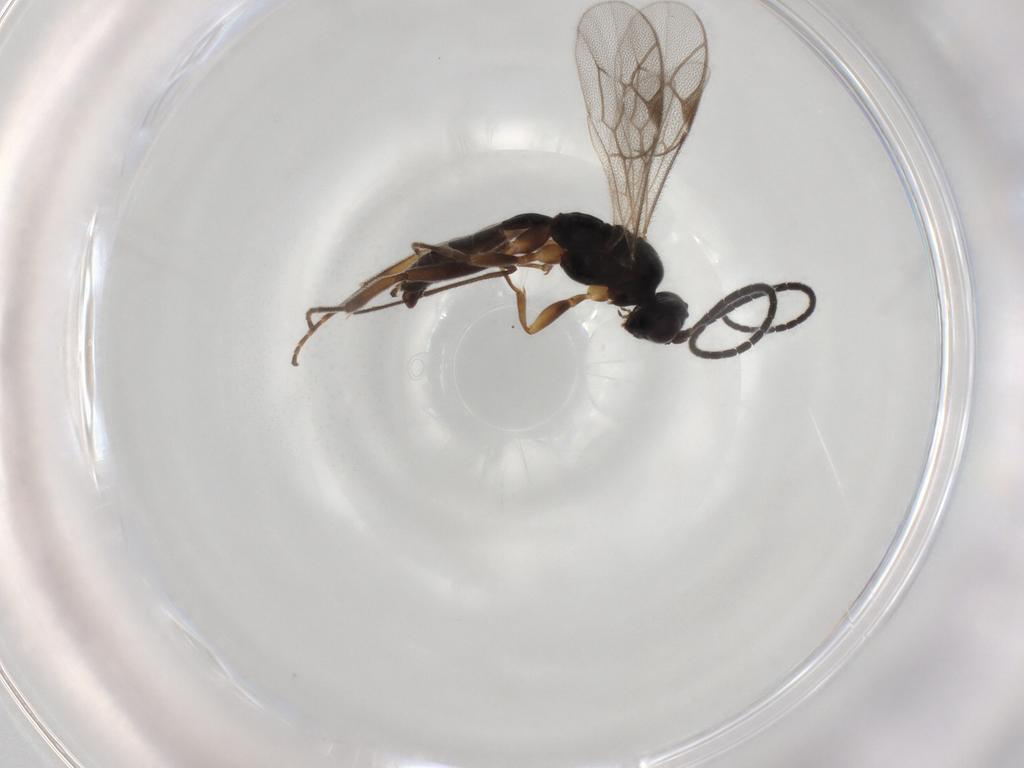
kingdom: Animalia
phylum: Arthropoda
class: Insecta
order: Hymenoptera
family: Ichneumonidae
